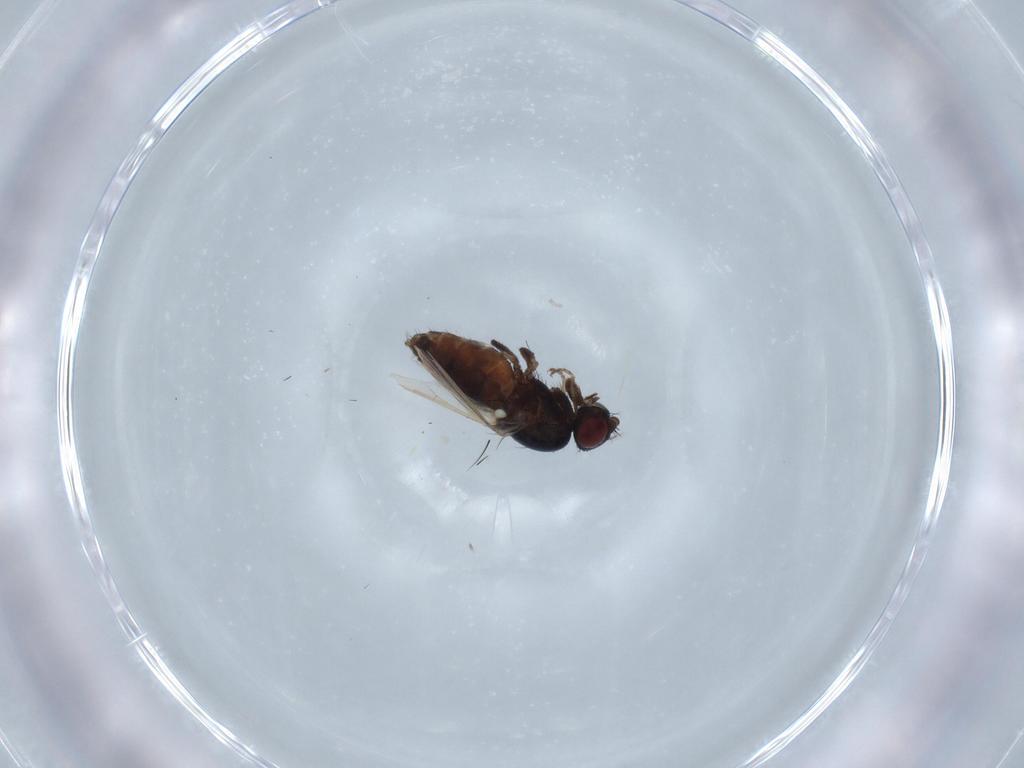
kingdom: Animalia
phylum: Arthropoda
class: Insecta
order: Diptera
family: Carnidae
